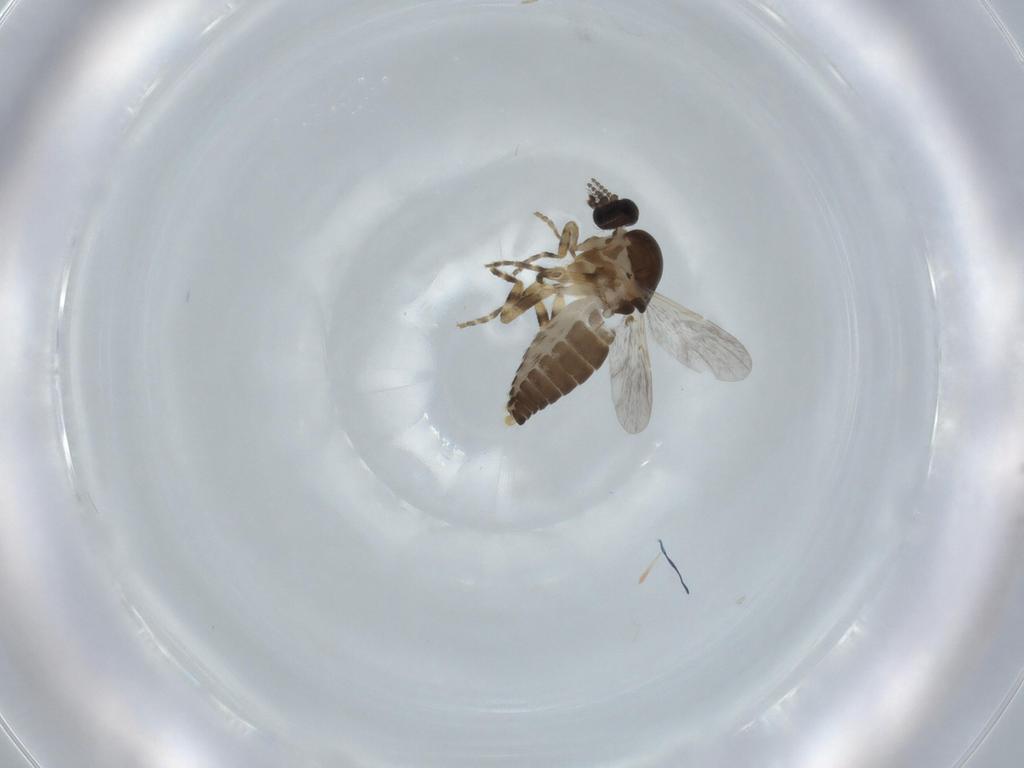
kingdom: Animalia
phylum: Arthropoda
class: Insecta
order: Diptera
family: Ceratopogonidae
